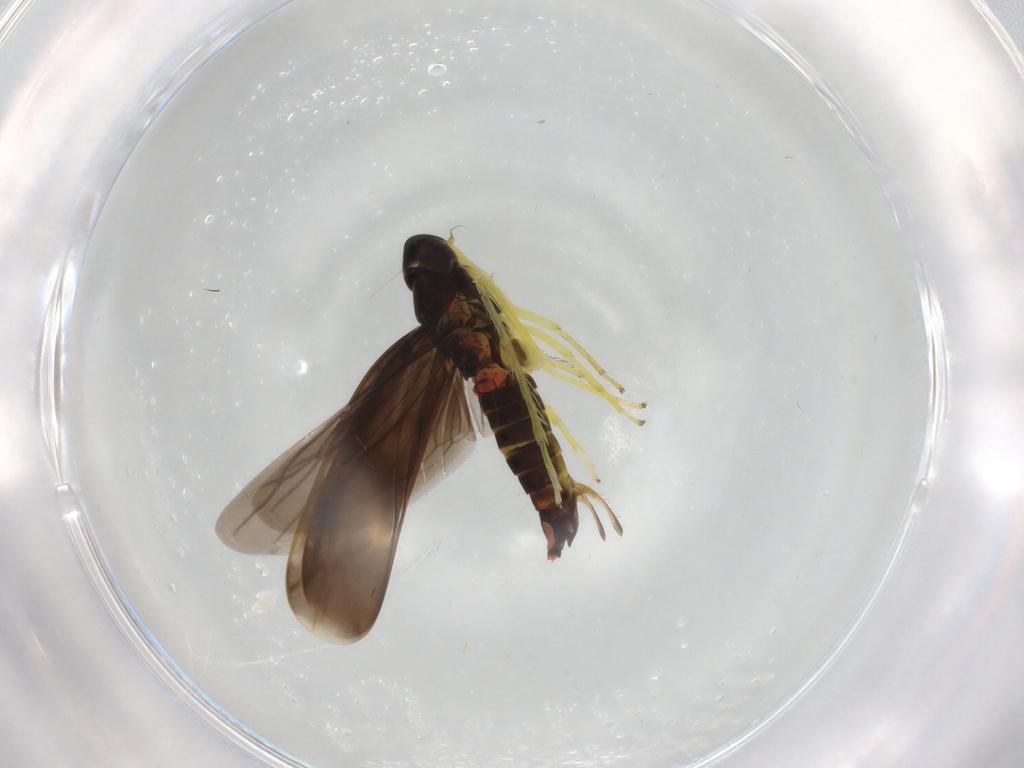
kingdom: Animalia
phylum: Arthropoda
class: Insecta
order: Hemiptera
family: Cicadellidae
